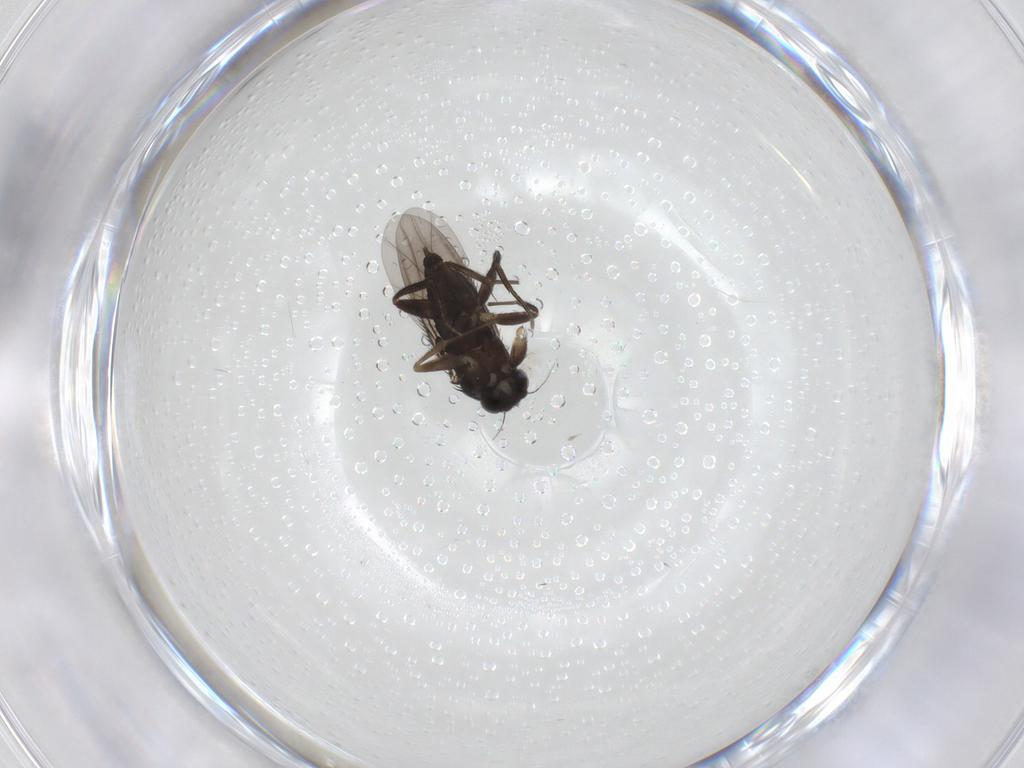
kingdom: Animalia
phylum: Arthropoda
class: Insecta
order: Diptera
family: Phoridae
